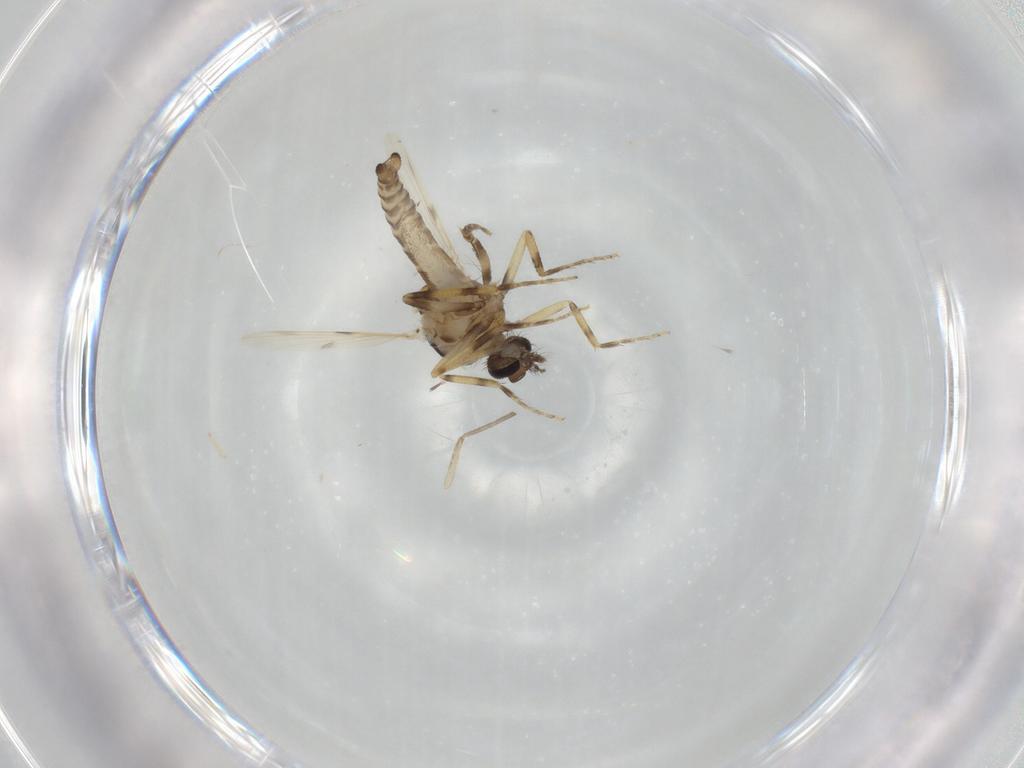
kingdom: Animalia
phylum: Arthropoda
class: Insecta
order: Diptera
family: Ceratopogonidae
